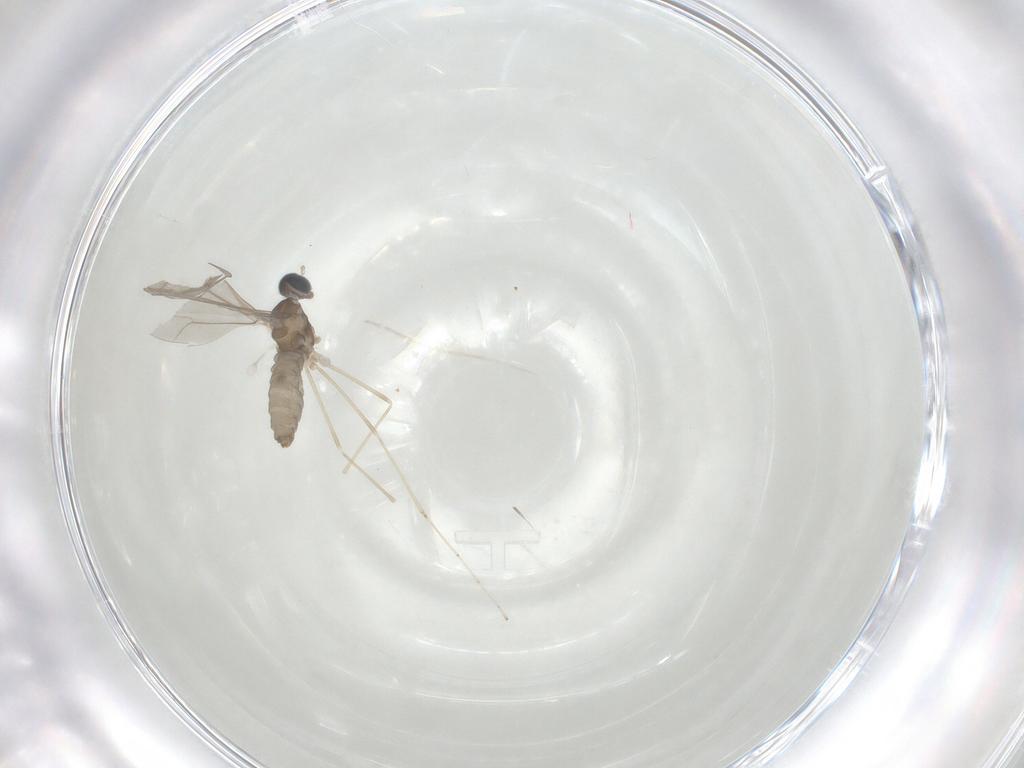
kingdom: Animalia
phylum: Arthropoda
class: Insecta
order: Diptera
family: Cecidomyiidae
